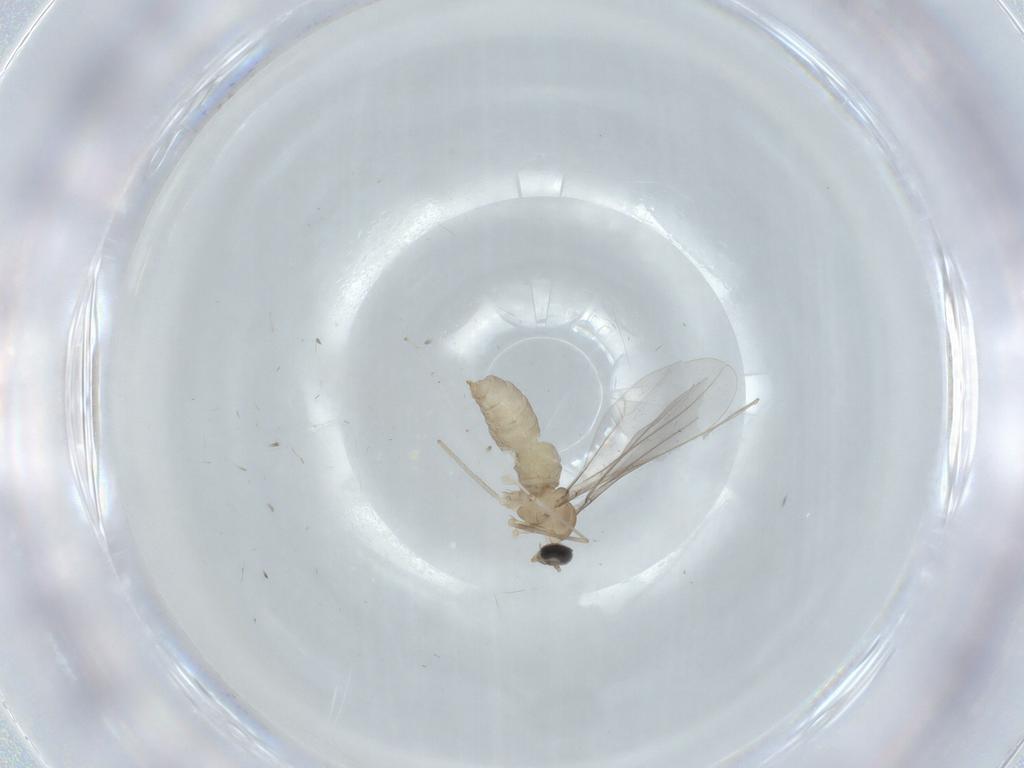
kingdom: Animalia
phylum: Arthropoda
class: Insecta
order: Diptera
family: Cecidomyiidae
